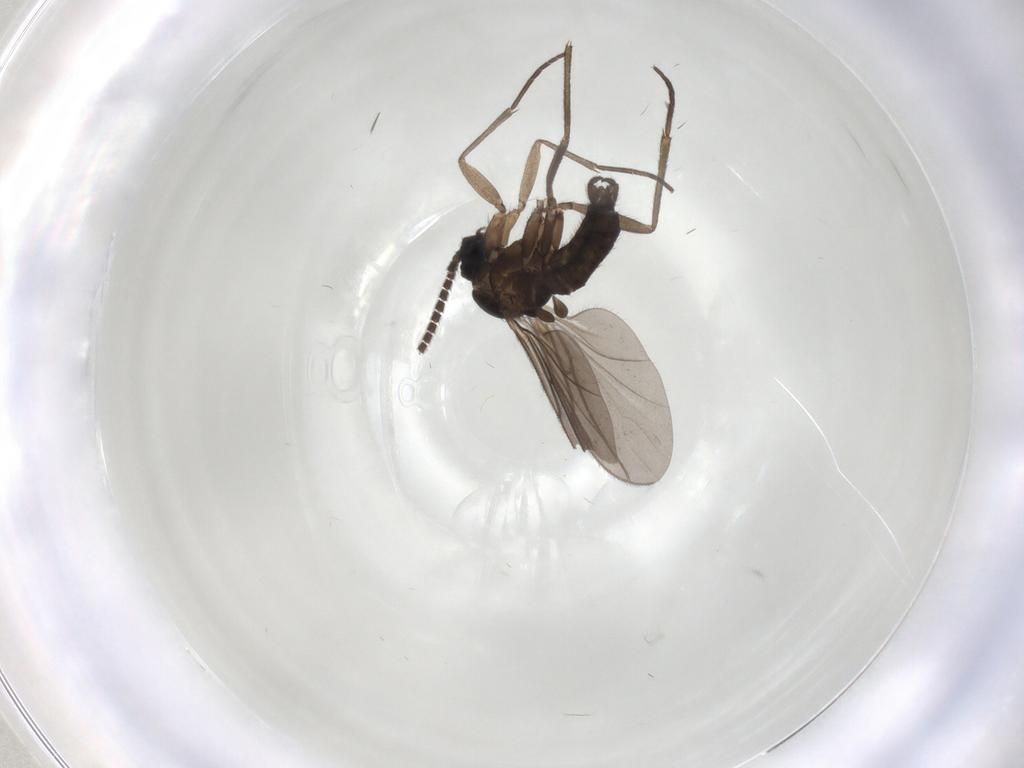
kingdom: Animalia
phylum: Arthropoda
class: Insecta
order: Diptera
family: Sciaridae
